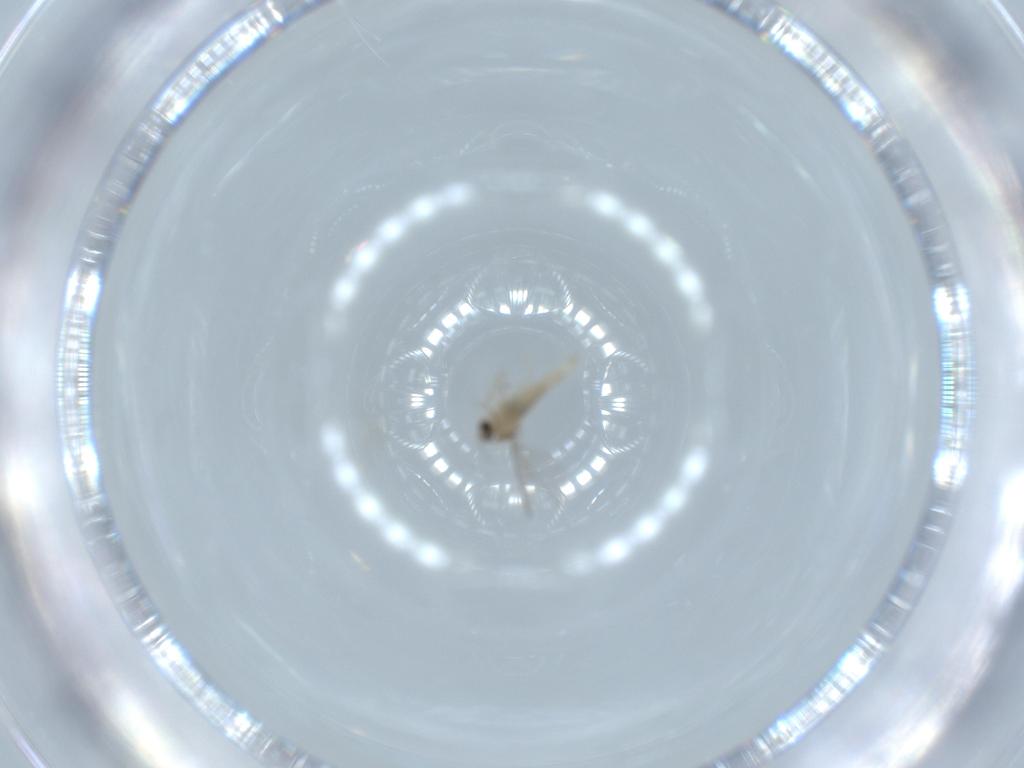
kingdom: Animalia
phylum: Arthropoda
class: Insecta
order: Diptera
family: Cecidomyiidae
